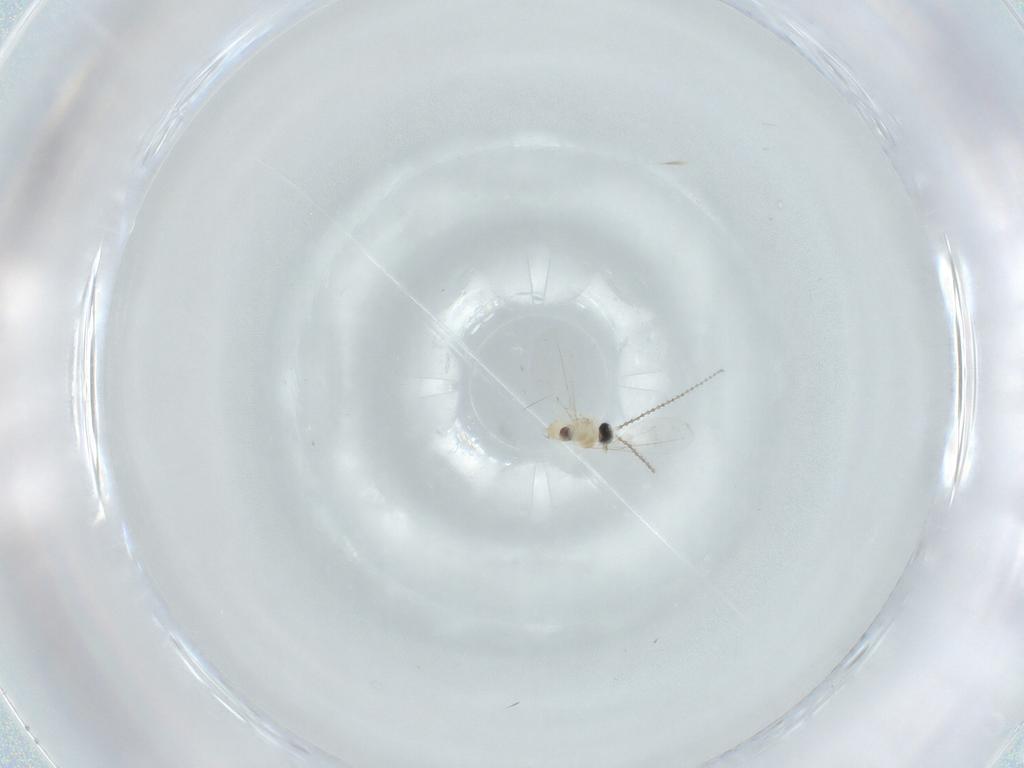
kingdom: Animalia
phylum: Arthropoda
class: Insecta
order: Diptera
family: Cecidomyiidae
